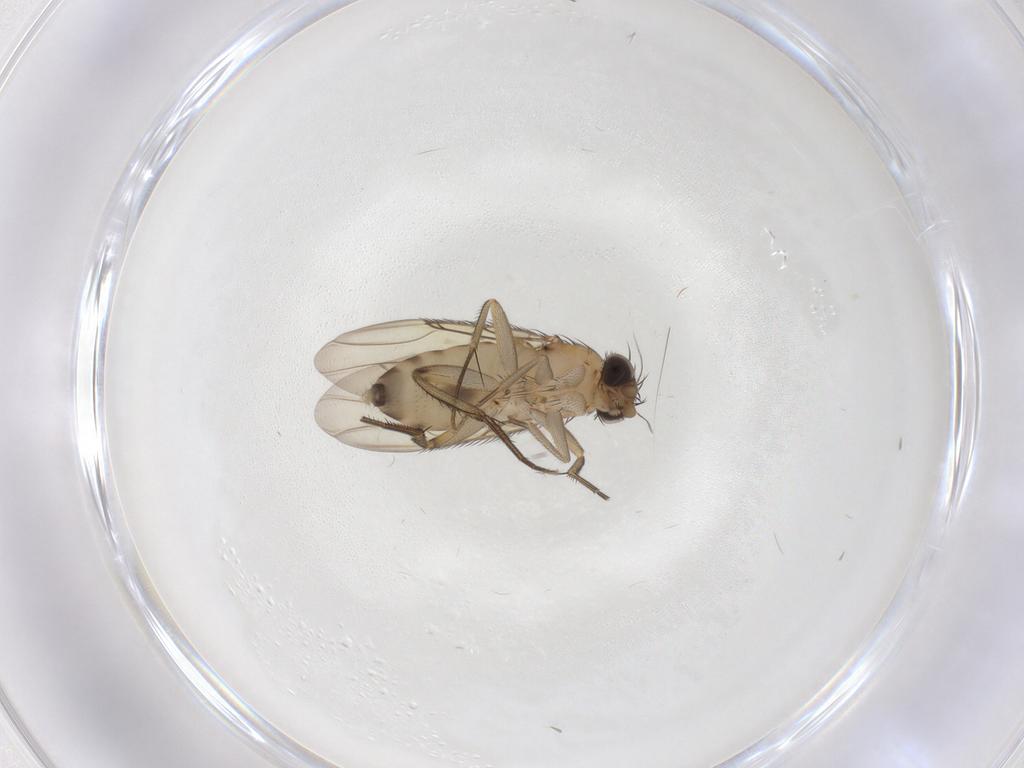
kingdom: Animalia
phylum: Arthropoda
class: Insecta
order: Diptera
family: Phoridae
